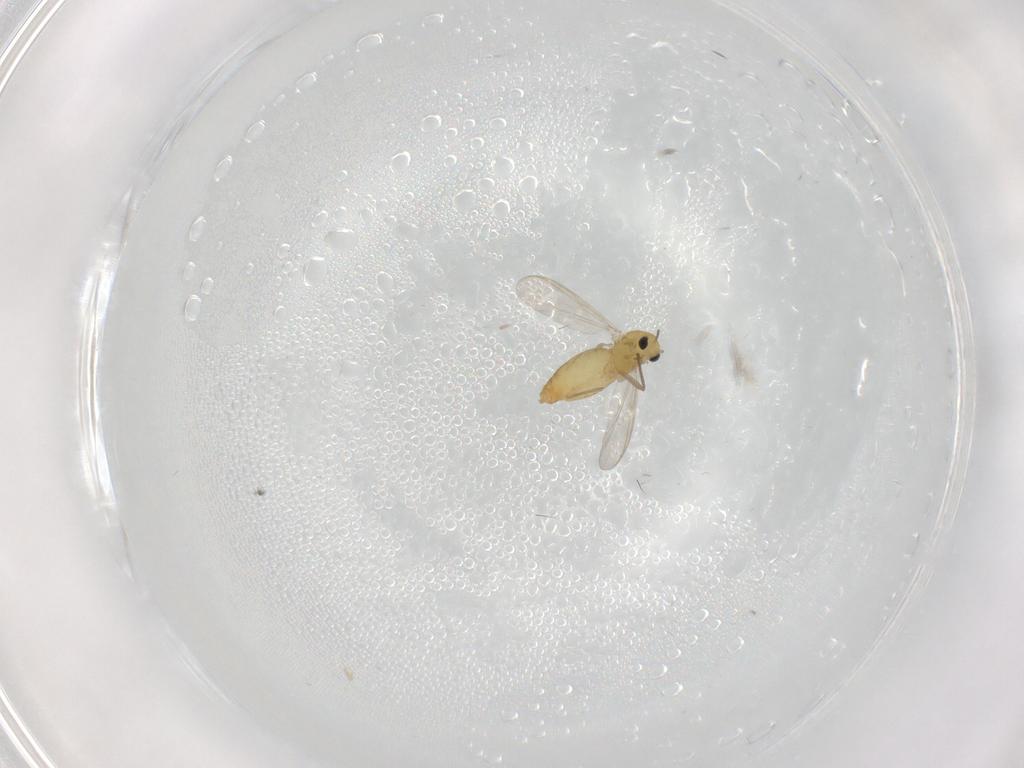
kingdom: Animalia
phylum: Arthropoda
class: Insecta
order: Diptera
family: Chironomidae
